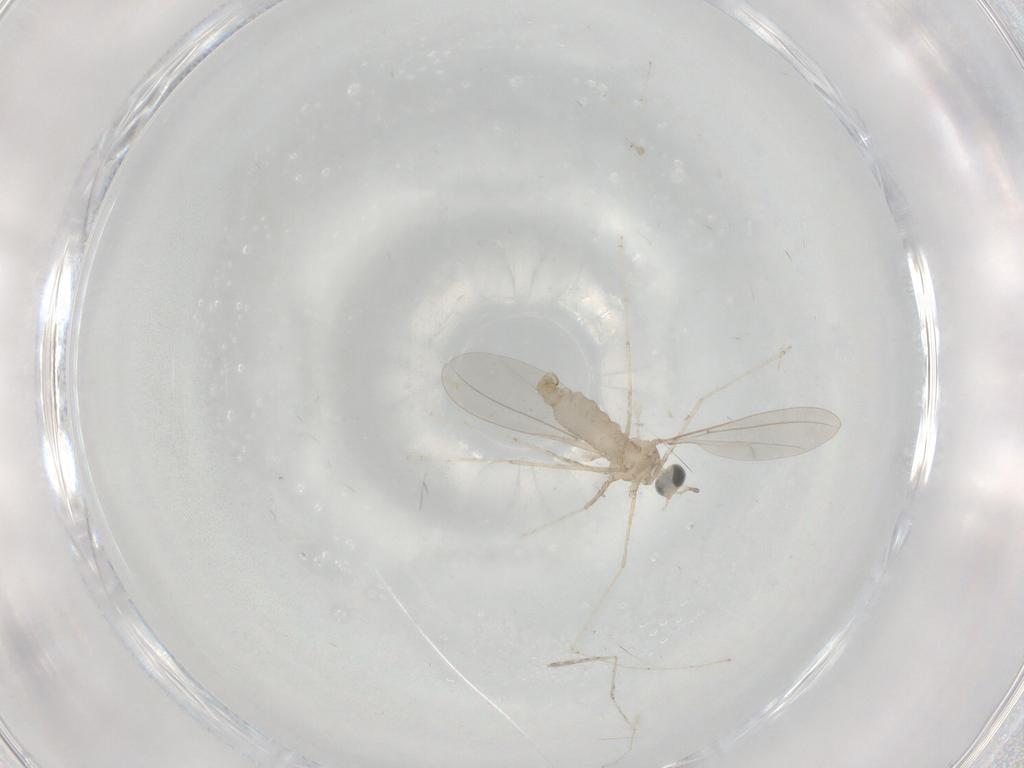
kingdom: Animalia
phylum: Arthropoda
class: Insecta
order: Diptera
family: Cecidomyiidae
